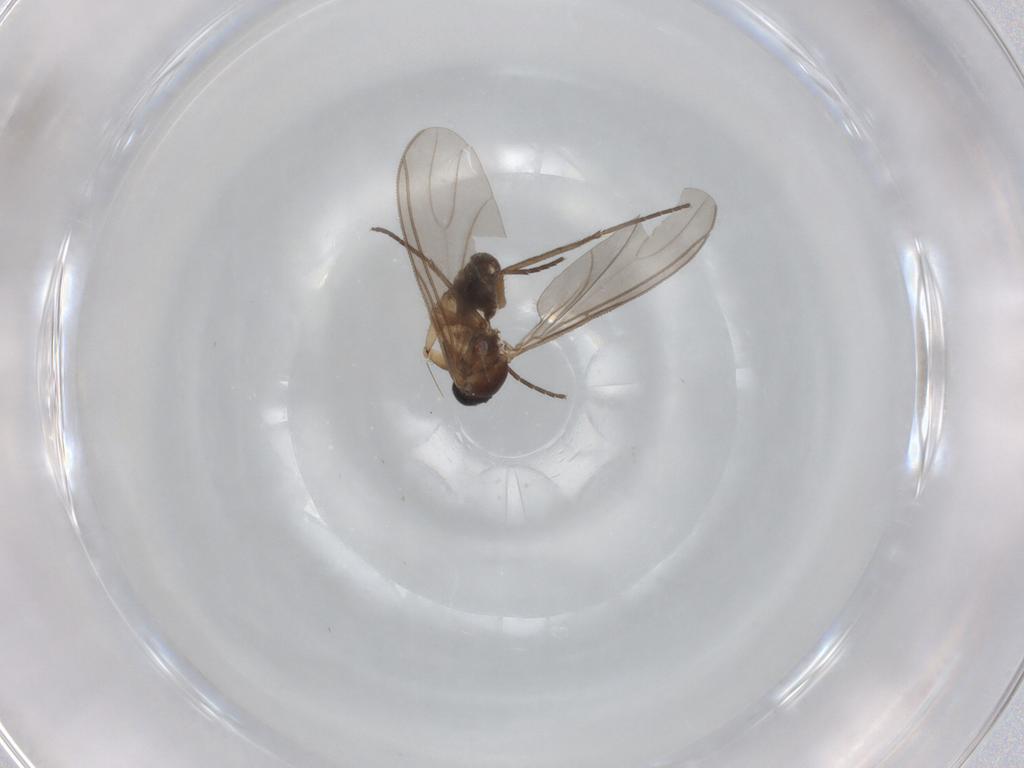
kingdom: Animalia
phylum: Arthropoda
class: Insecta
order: Diptera
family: Sciaridae
